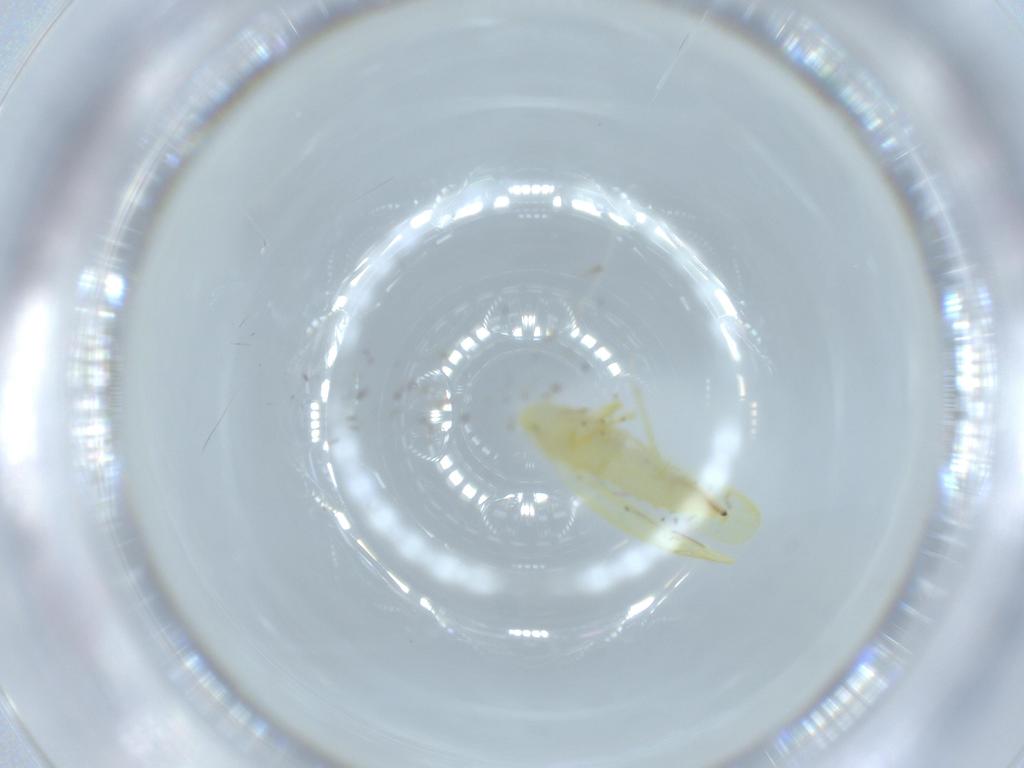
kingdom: Animalia
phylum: Arthropoda
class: Insecta
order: Hemiptera
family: Cicadellidae
